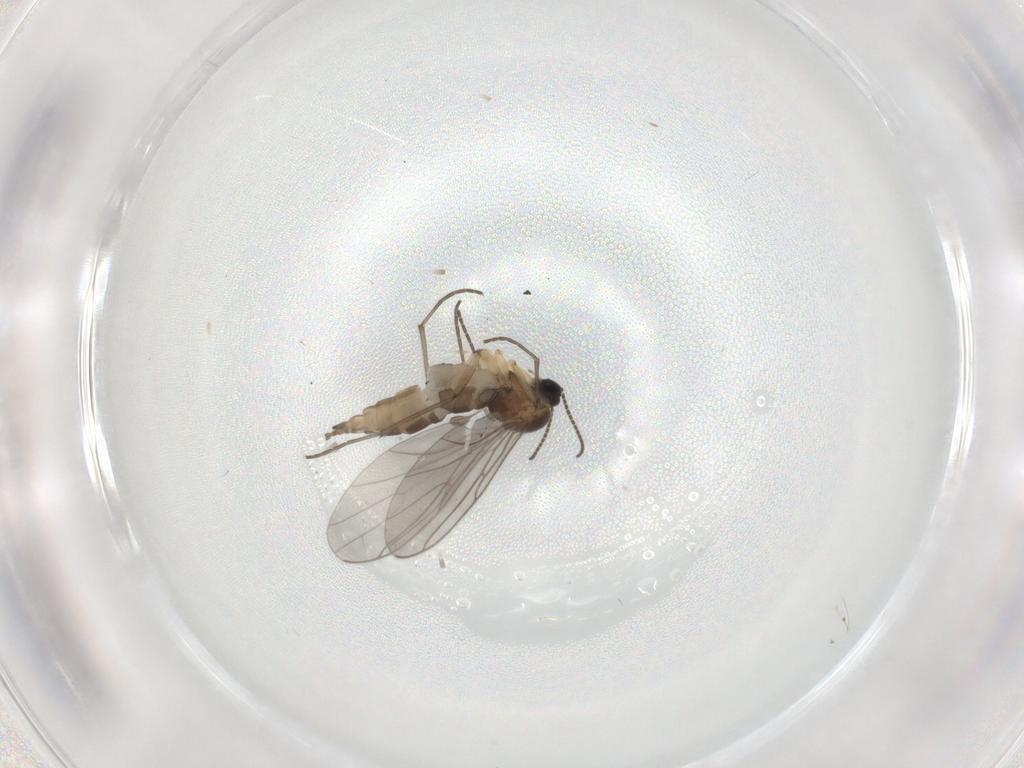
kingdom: Animalia
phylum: Arthropoda
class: Insecta
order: Diptera
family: Sciaridae
